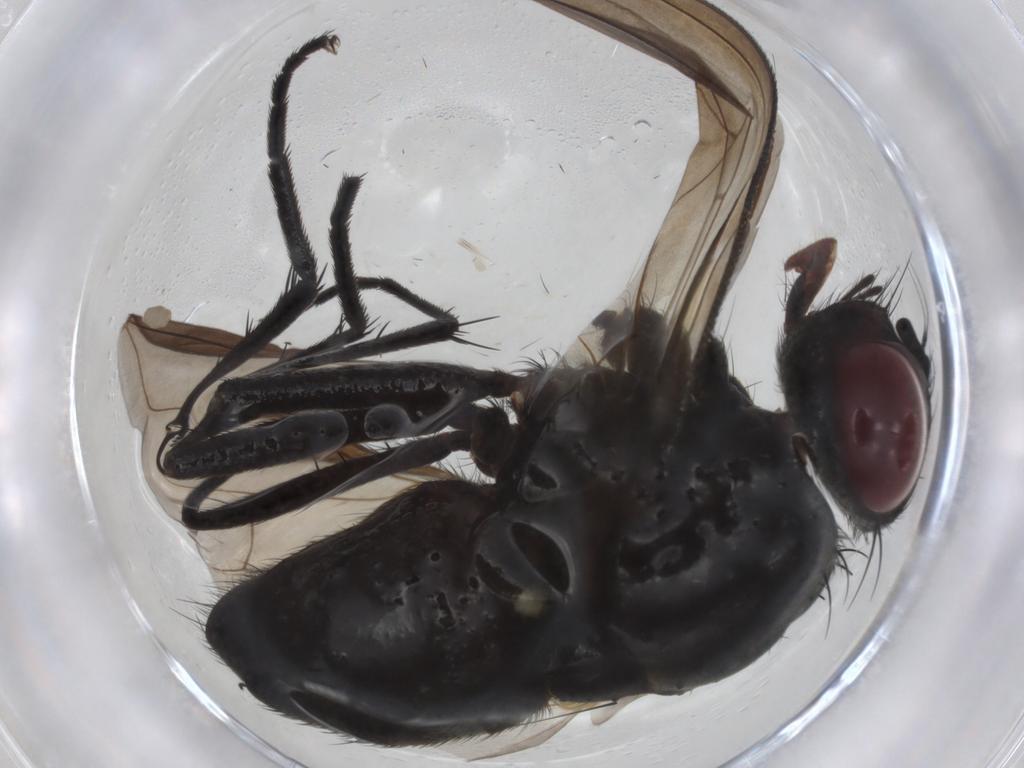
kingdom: Animalia
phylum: Arthropoda
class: Insecta
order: Diptera
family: Calliphoridae
